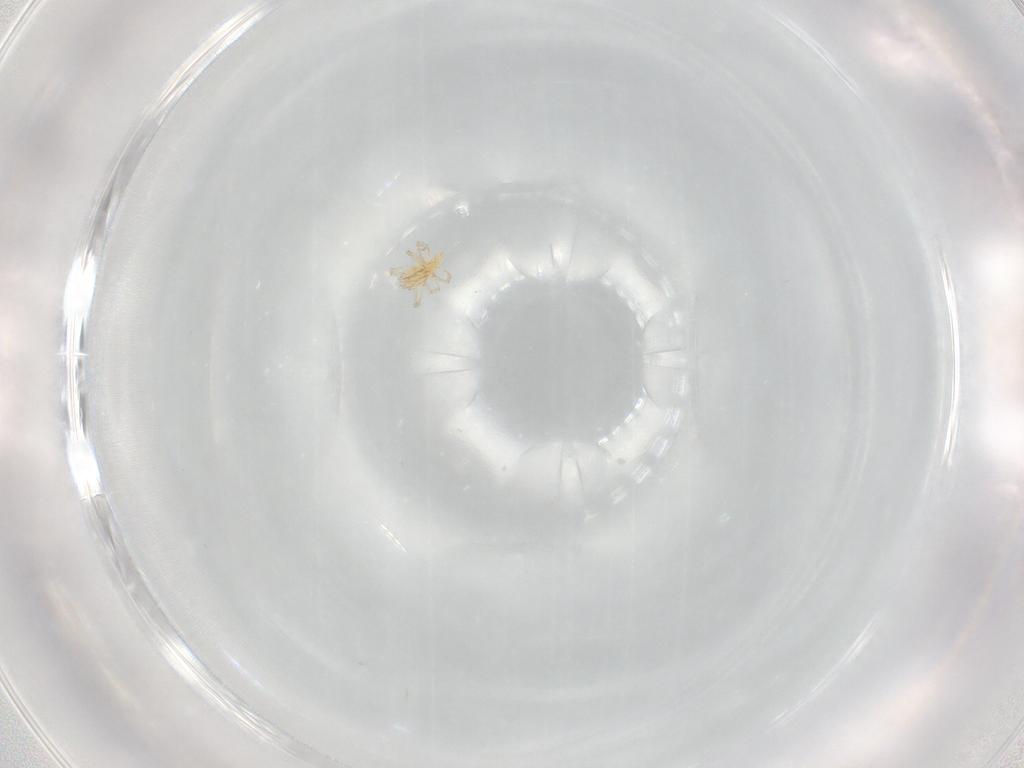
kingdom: Animalia
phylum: Arthropoda
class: Arachnida
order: Trombidiformes
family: Erythraeidae
